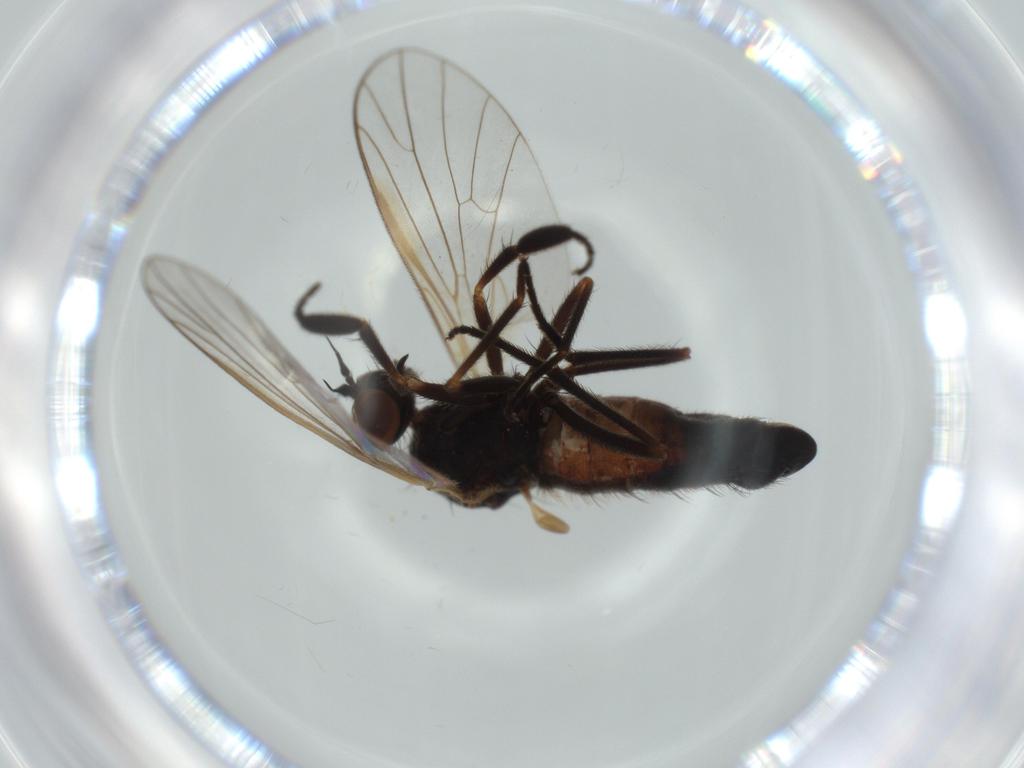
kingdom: Animalia
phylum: Arthropoda
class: Insecta
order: Diptera
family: Empididae
